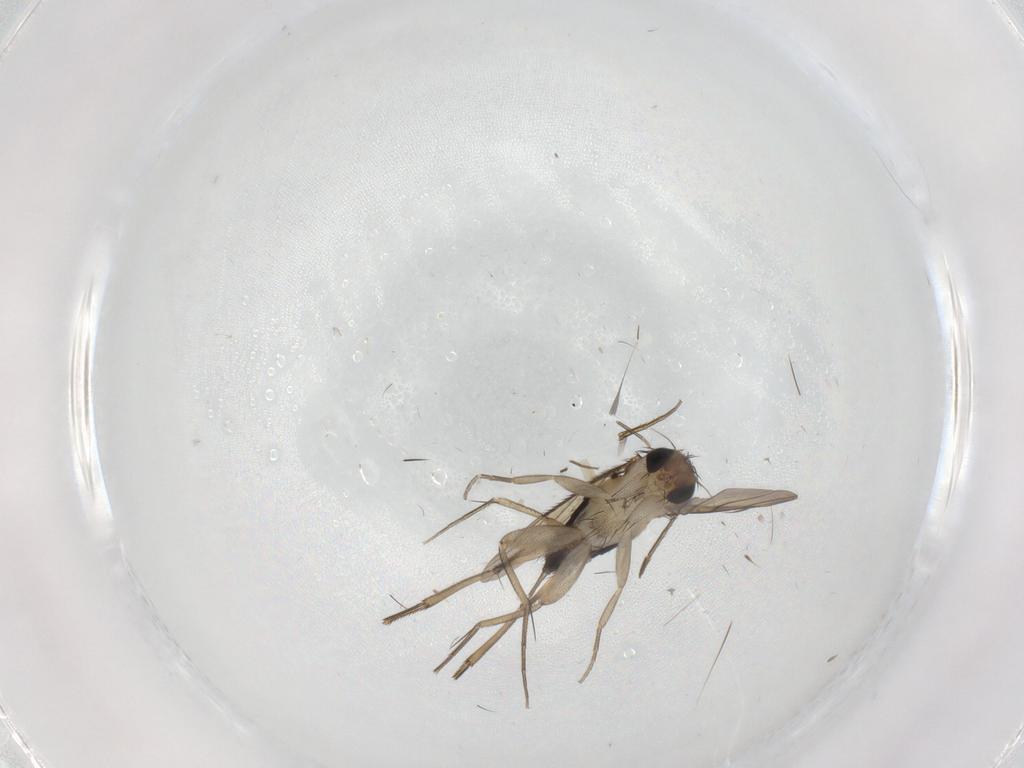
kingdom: Animalia
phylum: Arthropoda
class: Insecta
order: Diptera
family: Phoridae
